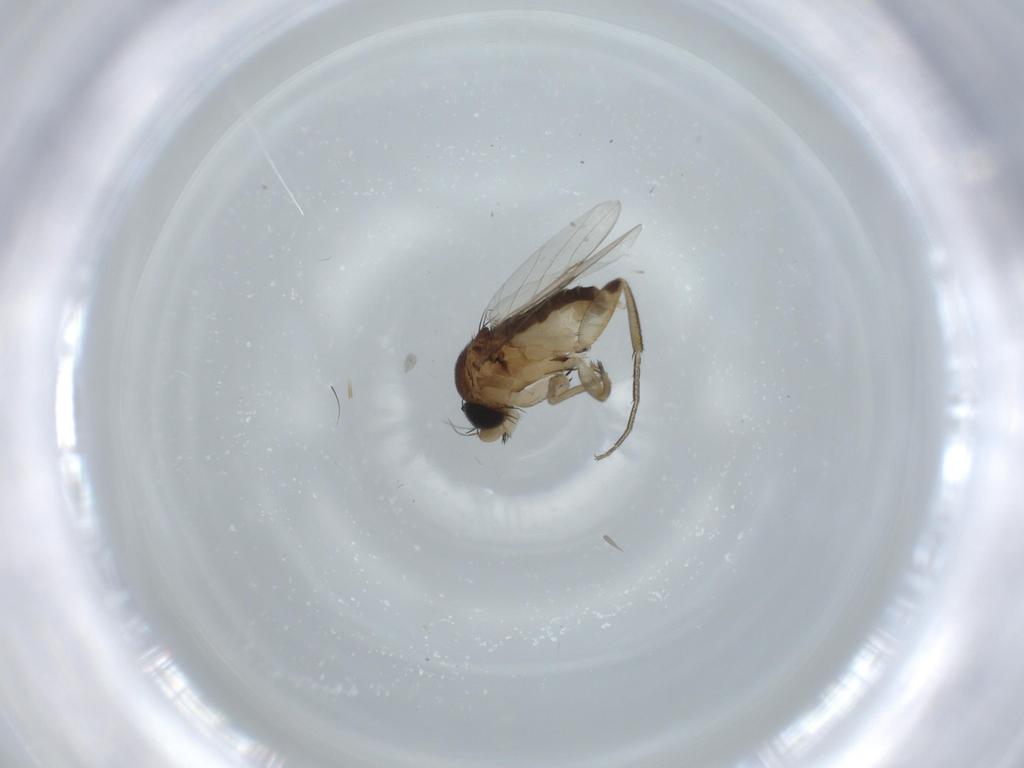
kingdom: Animalia
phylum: Arthropoda
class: Insecta
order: Diptera
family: Phoridae
